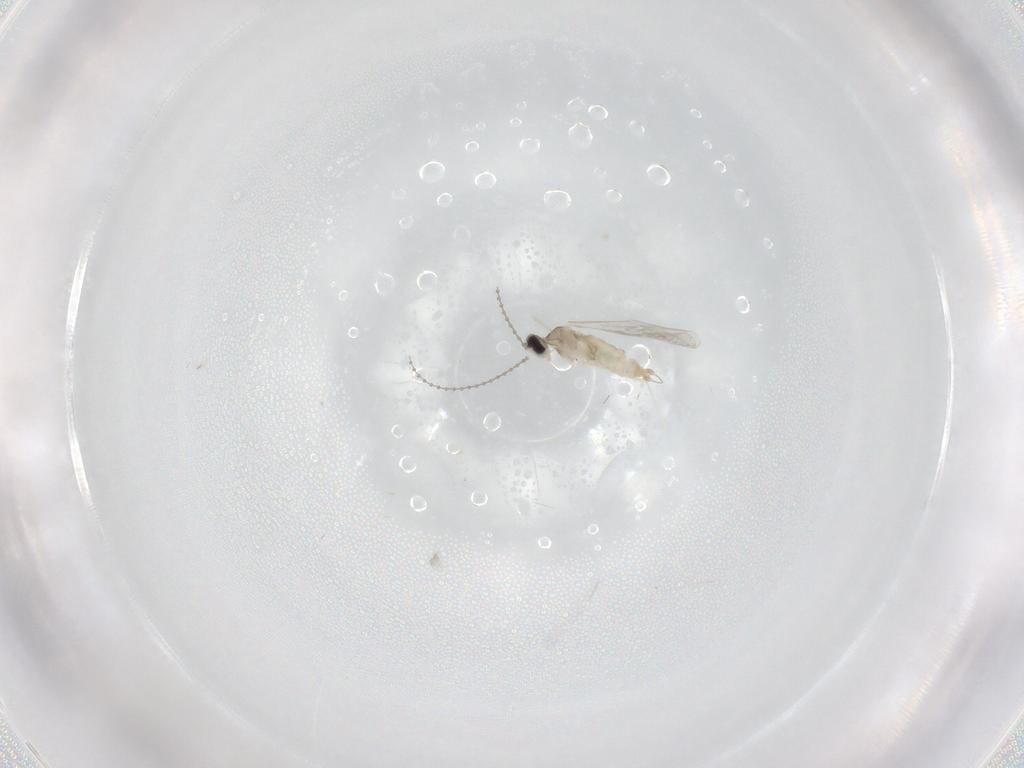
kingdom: Animalia
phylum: Arthropoda
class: Insecta
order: Diptera
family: Cecidomyiidae
